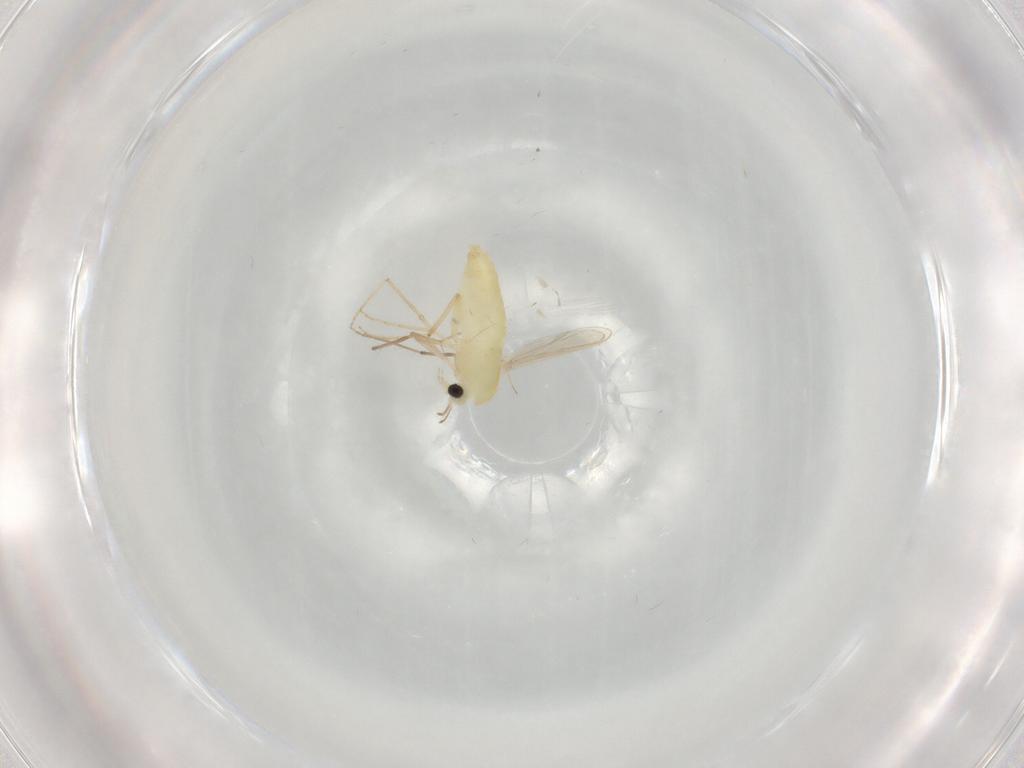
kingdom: Animalia
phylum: Arthropoda
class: Insecta
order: Diptera
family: Chironomidae
